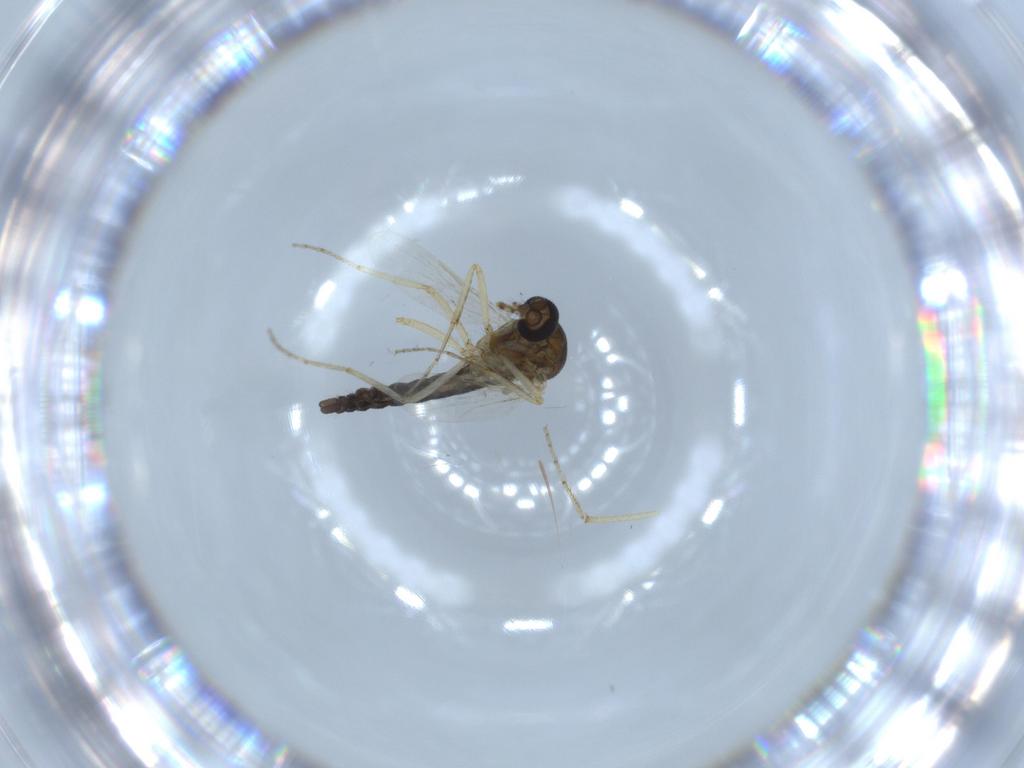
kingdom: Animalia
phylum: Arthropoda
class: Insecta
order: Diptera
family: Ceratopogonidae
